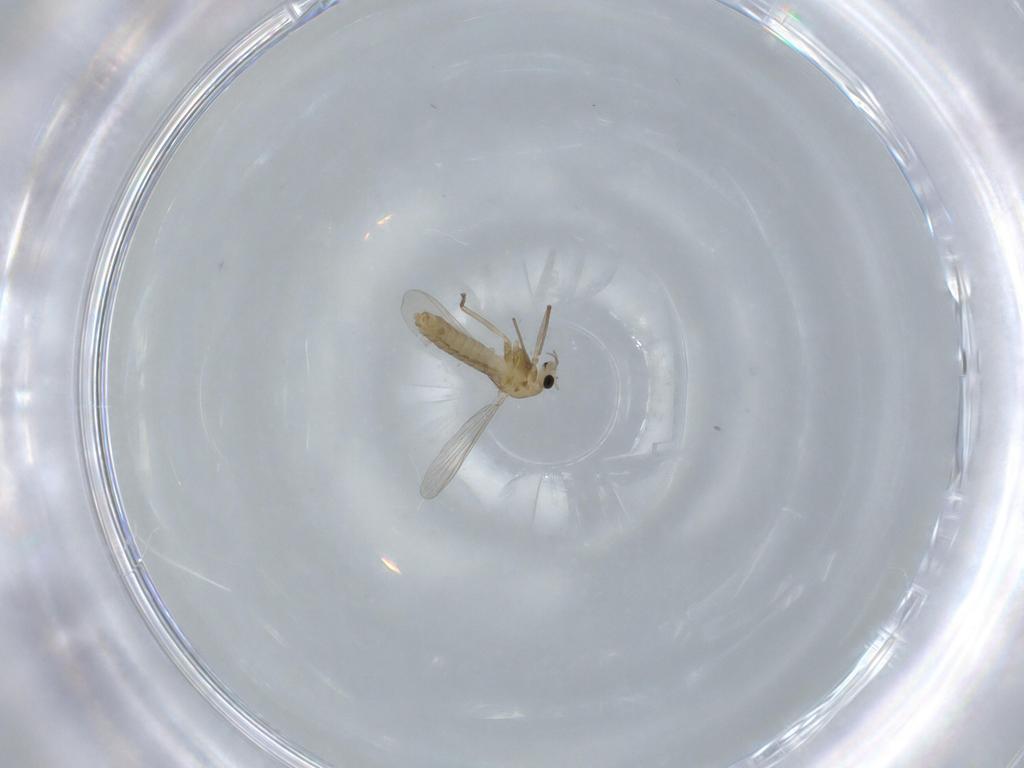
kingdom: Animalia
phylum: Arthropoda
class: Insecta
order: Diptera
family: Chironomidae
